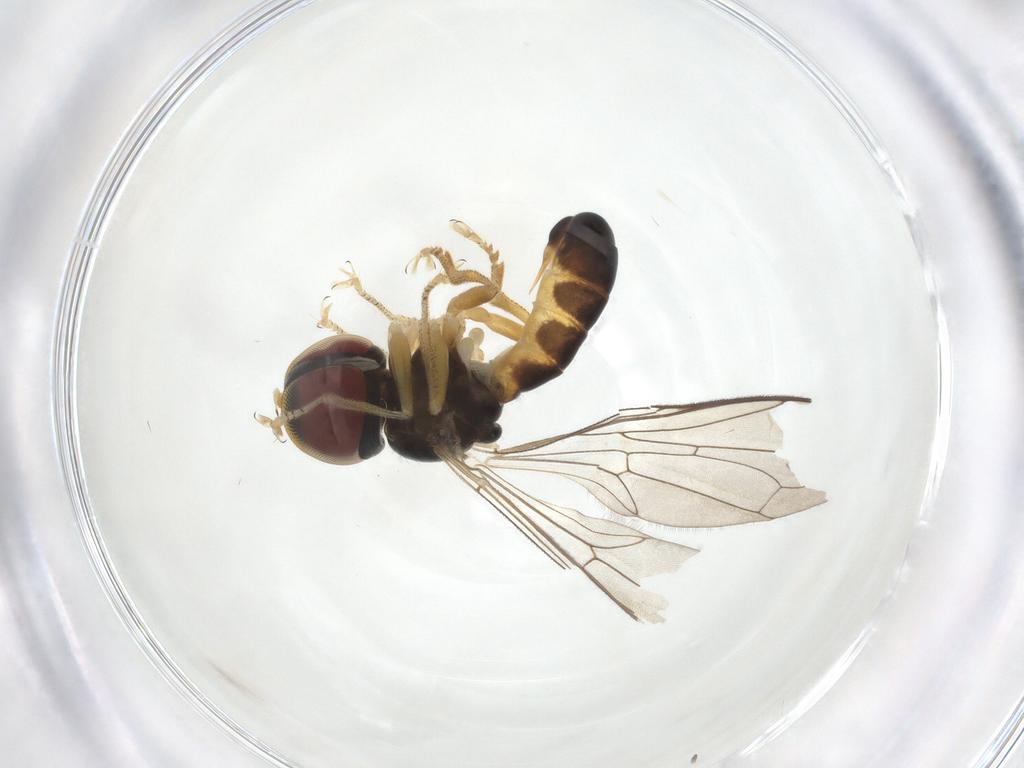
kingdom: Animalia
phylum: Arthropoda
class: Insecta
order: Diptera
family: Pipunculidae
